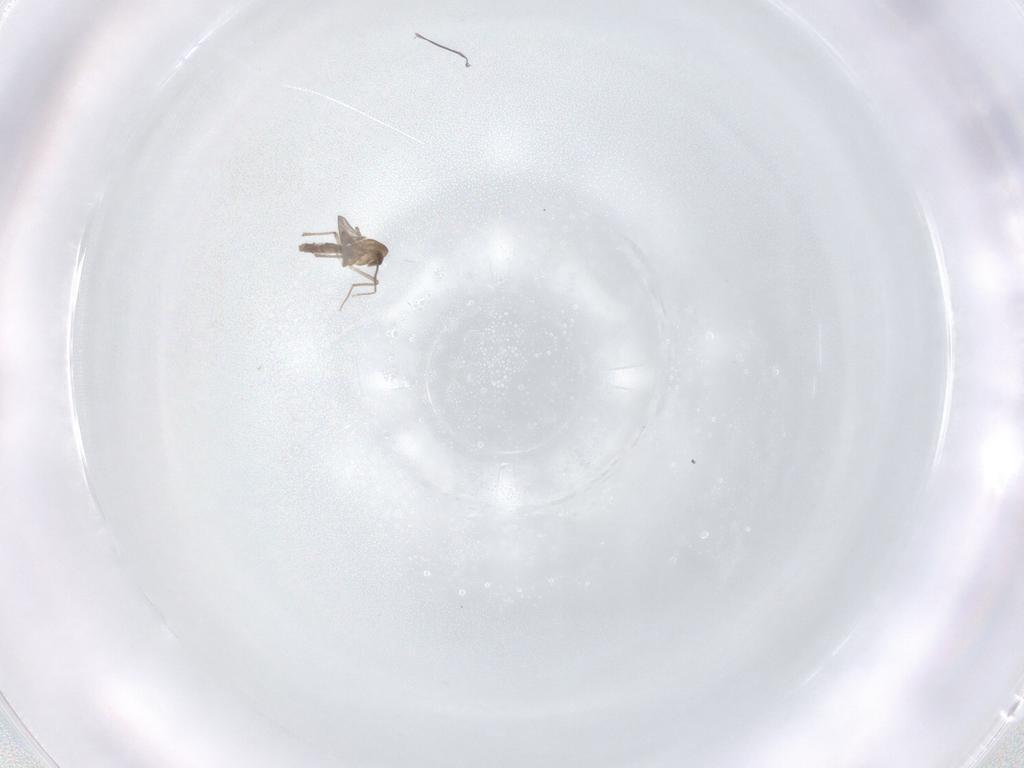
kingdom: Animalia
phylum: Arthropoda
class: Insecta
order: Diptera
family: Chironomidae
